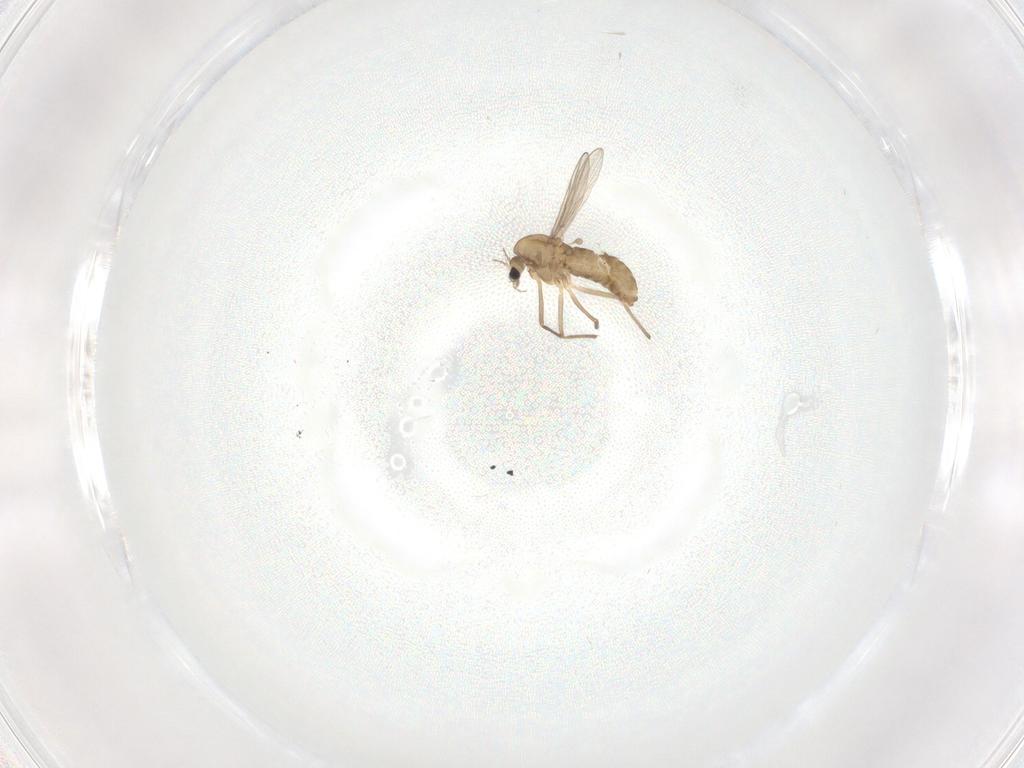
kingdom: Animalia
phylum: Arthropoda
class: Insecta
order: Diptera
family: Chironomidae
